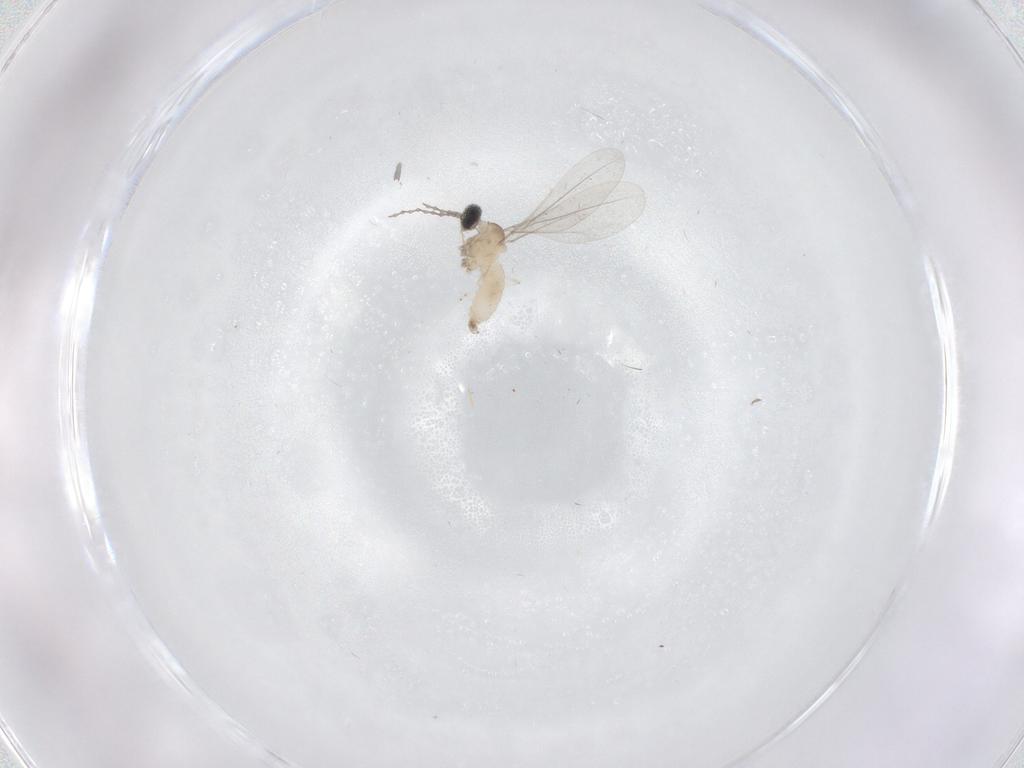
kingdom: Animalia
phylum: Arthropoda
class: Insecta
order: Diptera
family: Cecidomyiidae
